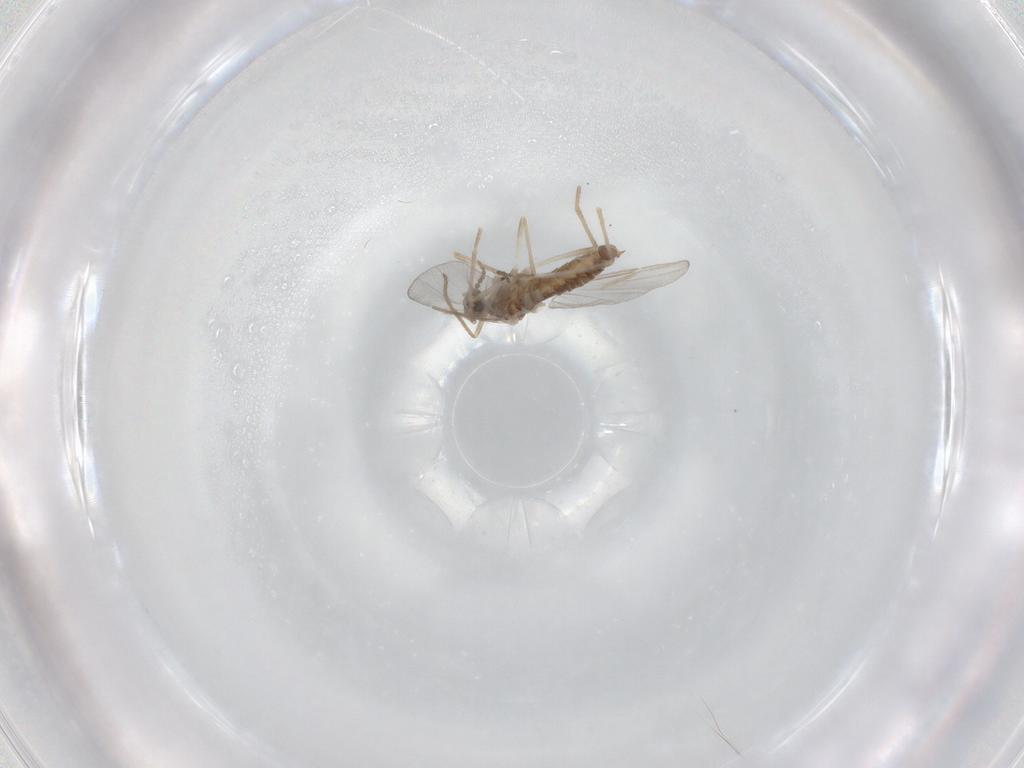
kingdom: Animalia
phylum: Arthropoda
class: Insecta
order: Diptera
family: Cecidomyiidae
